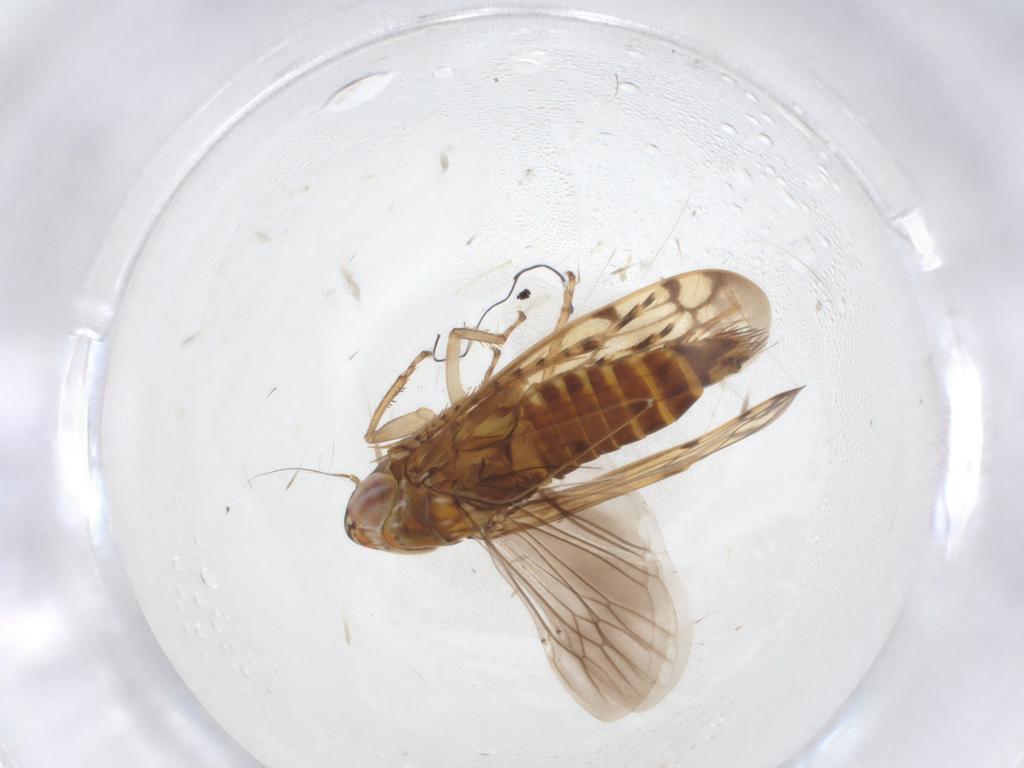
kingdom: Animalia
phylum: Arthropoda
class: Insecta
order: Hemiptera
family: Cicadellidae
